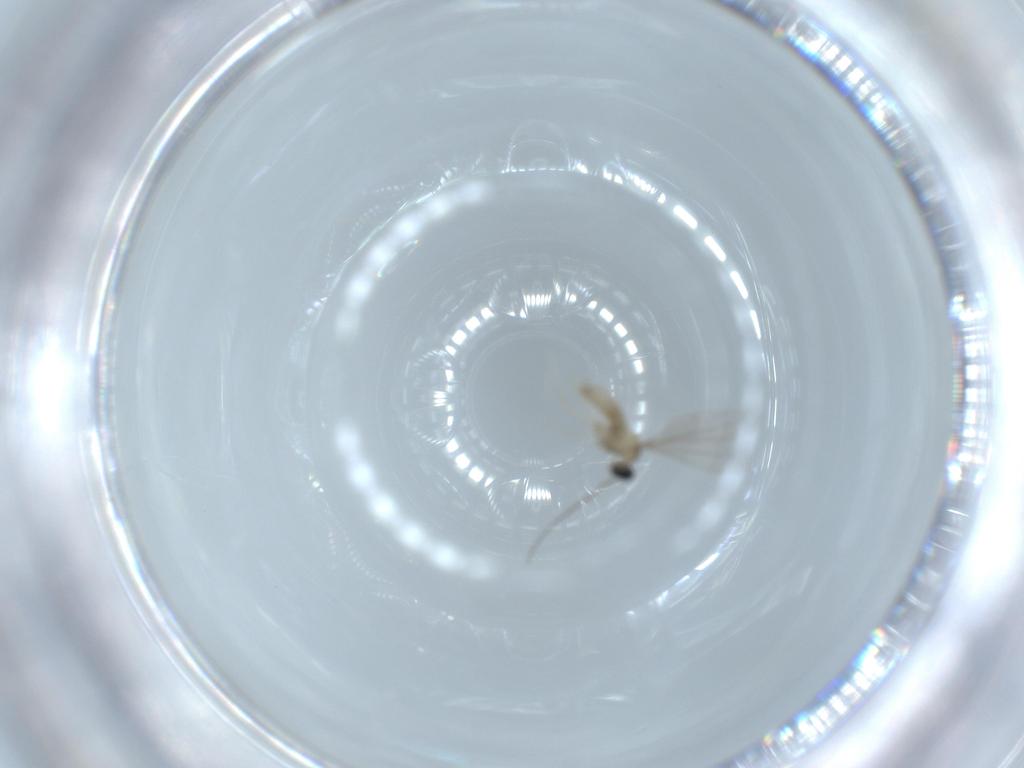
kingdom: Animalia
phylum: Arthropoda
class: Insecta
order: Diptera
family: Cecidomyiidae
